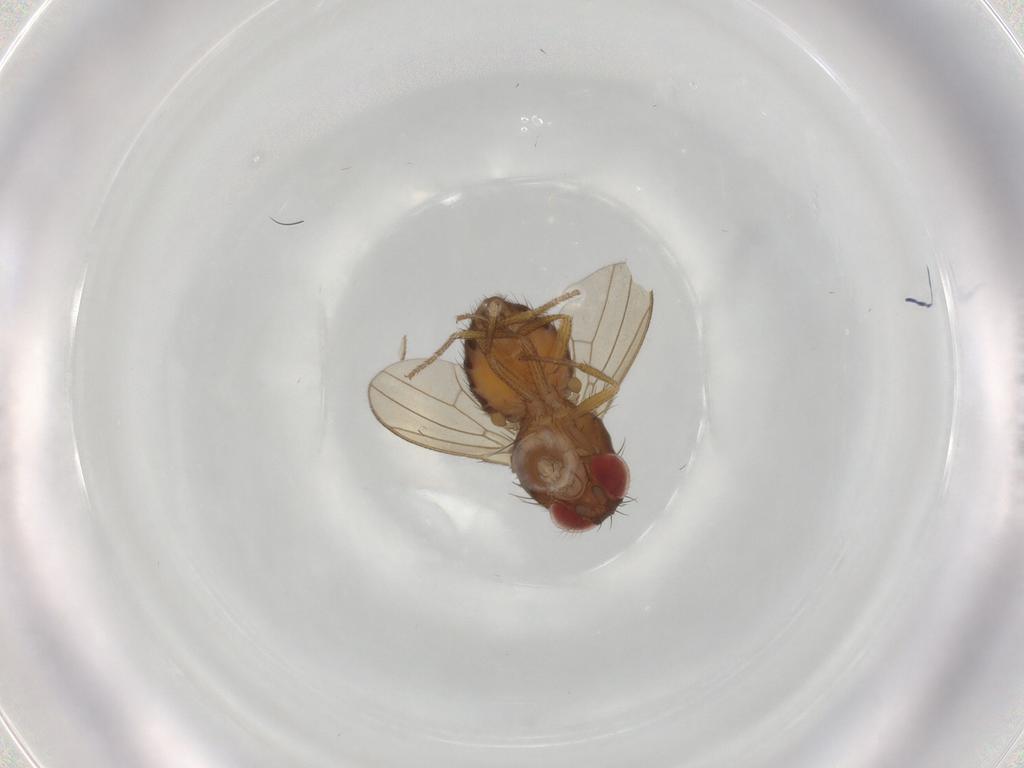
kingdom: Animalia
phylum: Arthropoda
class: Insecta
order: Diptera
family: Drosophilidae
